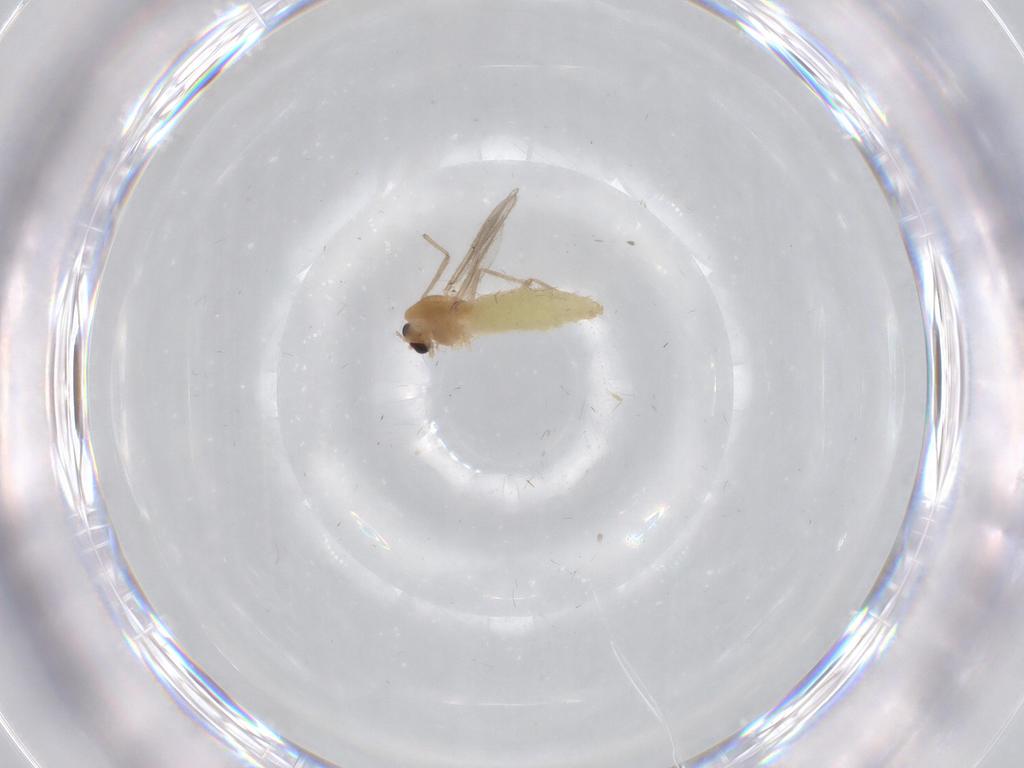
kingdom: Animalia
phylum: Arthropoda
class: Insecta
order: Diptera
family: Chironomidae
